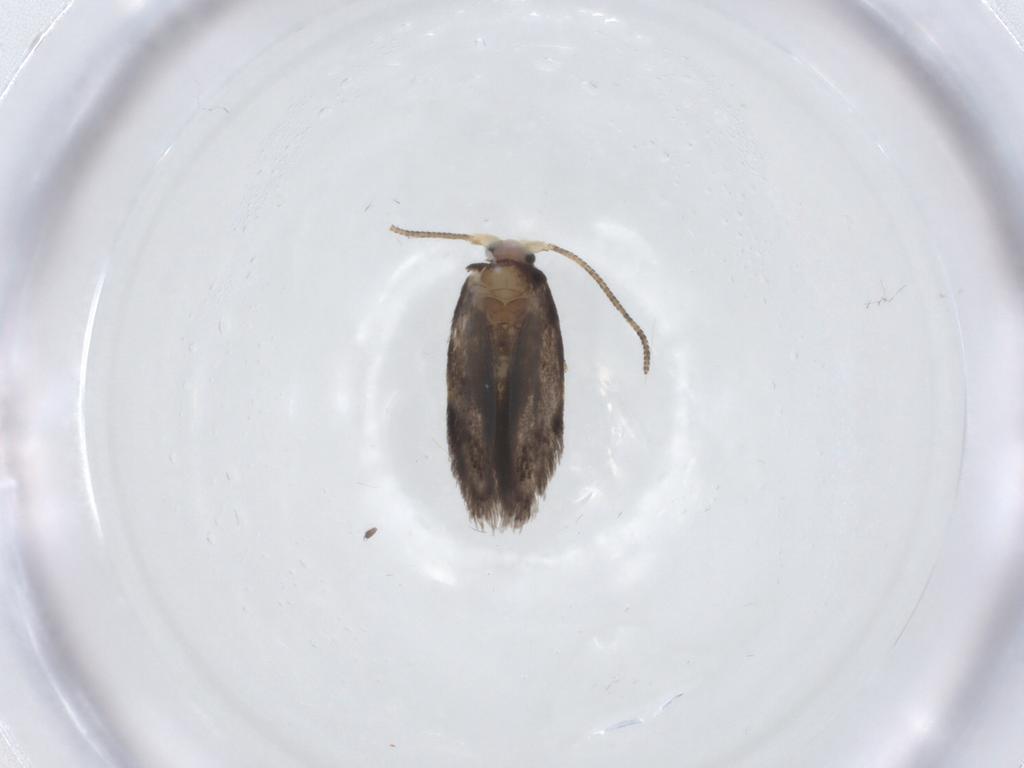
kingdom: Animalia
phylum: Arthropoda
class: Insecta
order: Lepidoptera
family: Nepticulidae
